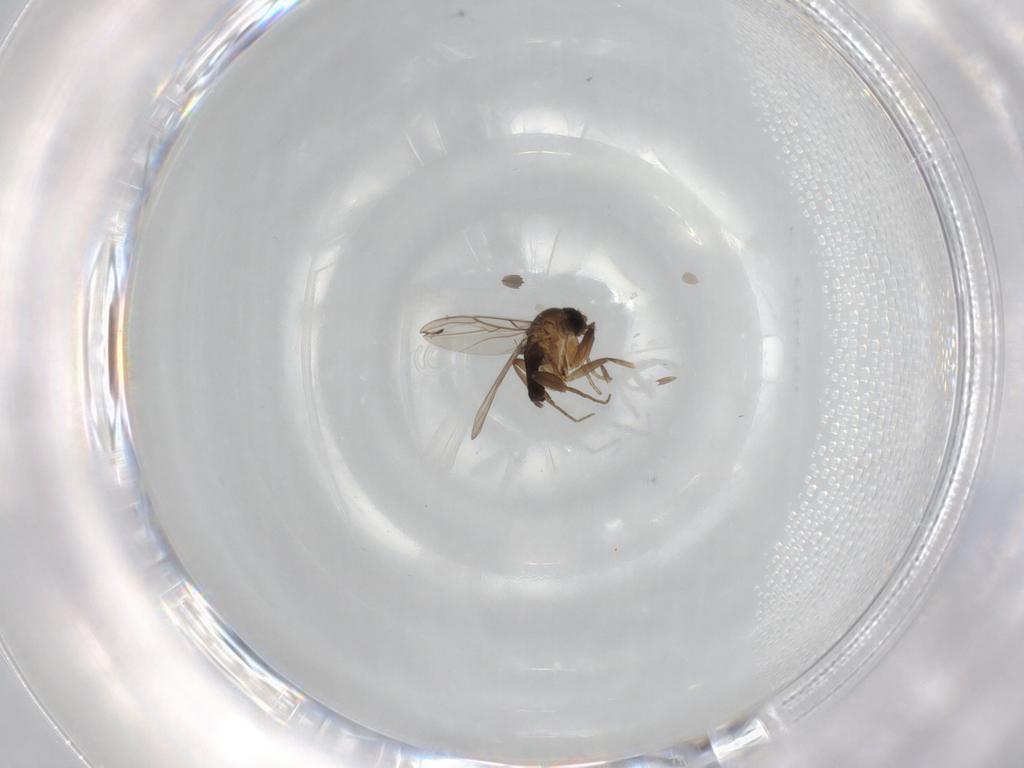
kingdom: Animalia
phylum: Arthropoda
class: Insecta
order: Diptera
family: Phoridae
